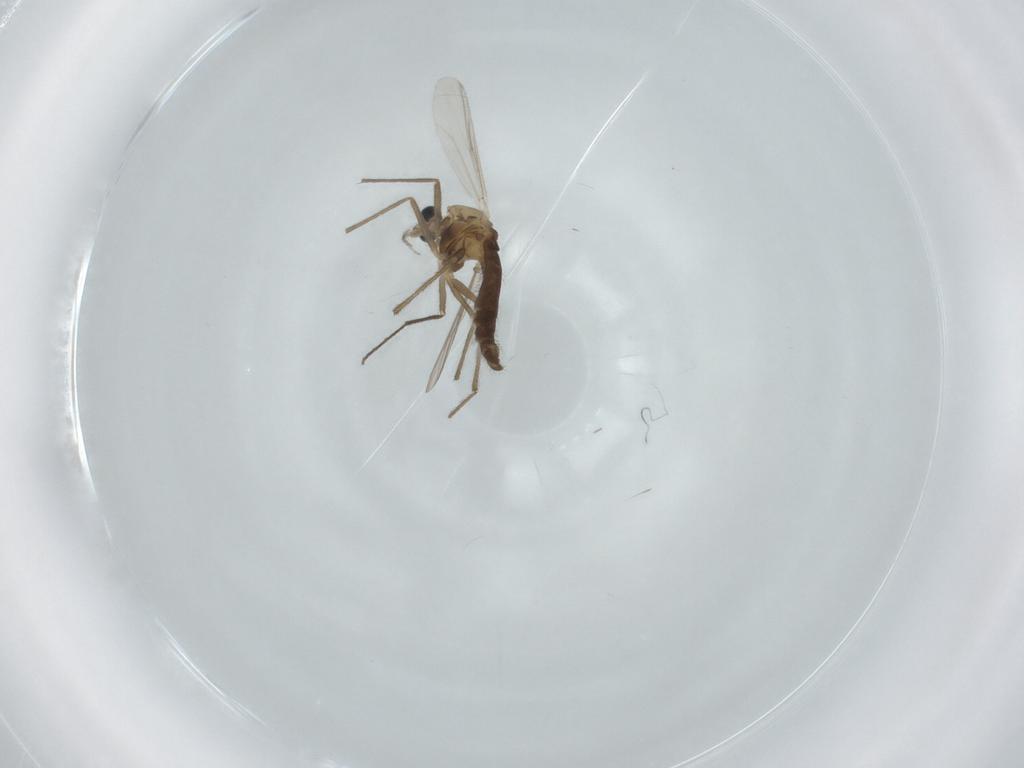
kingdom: Animalia
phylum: Arthropoda
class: Insecta
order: Diptera
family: Chironomidae
